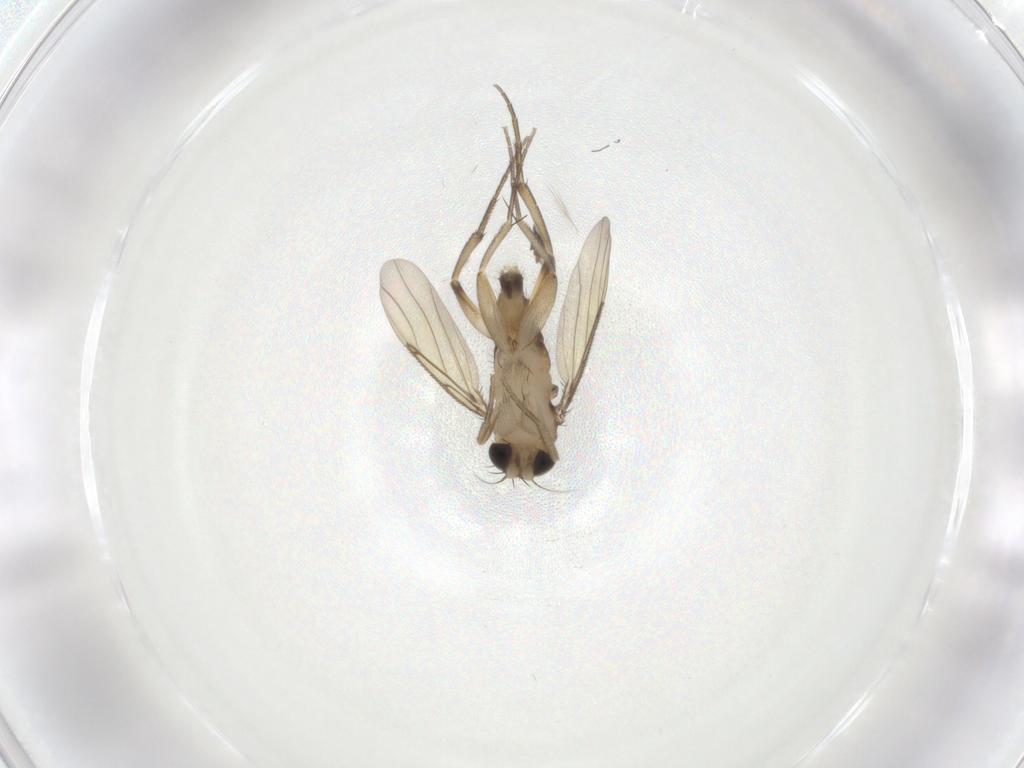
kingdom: Animalia
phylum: Arthropoda
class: Insecta
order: Diptera
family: Phoridae
